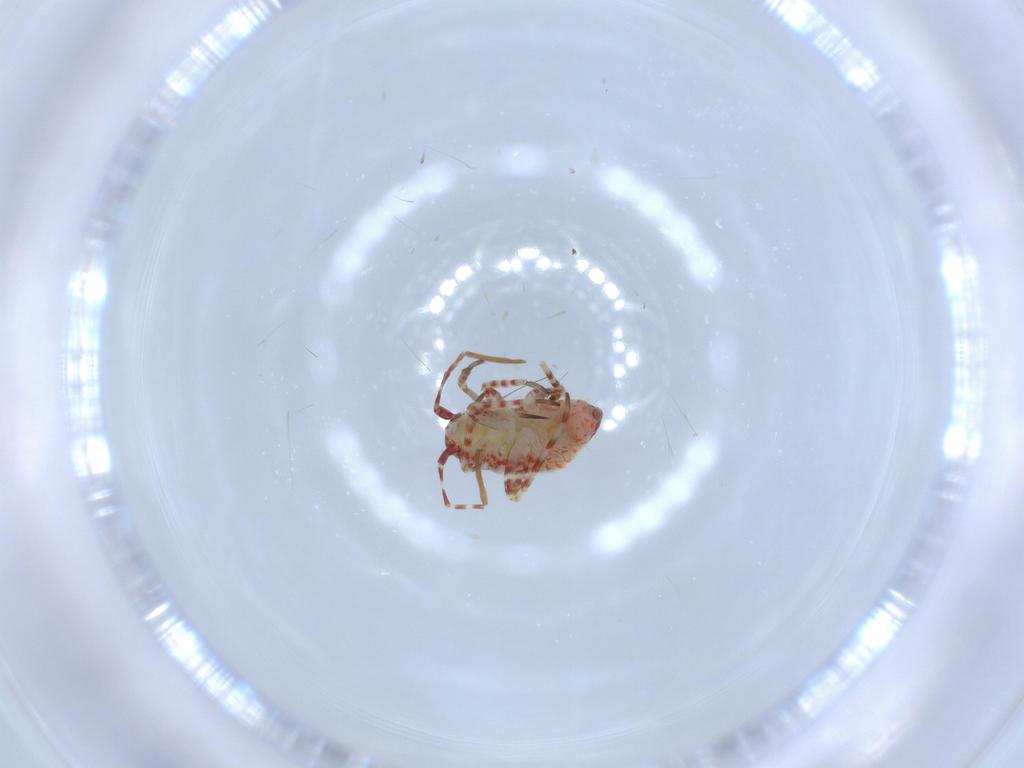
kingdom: Animalia
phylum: Arthropoda
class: Insecta
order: Hemiptera
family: Miridae
